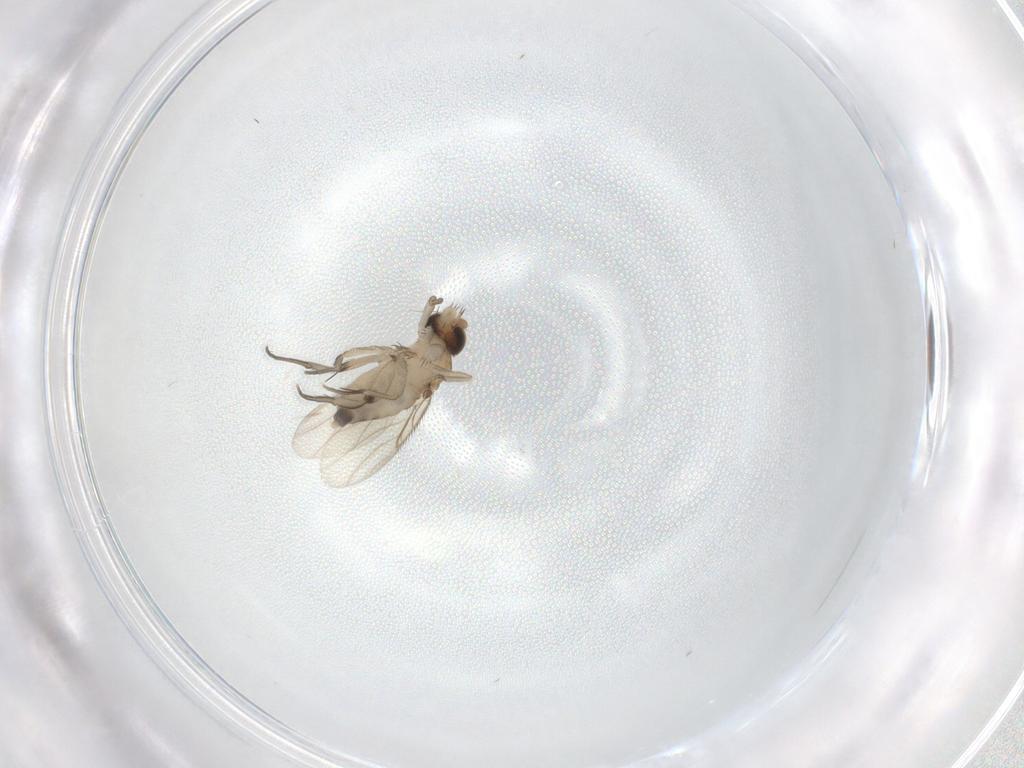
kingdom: Animalia
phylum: Arthropoda
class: Insecta
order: Diptera
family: Phoridae
